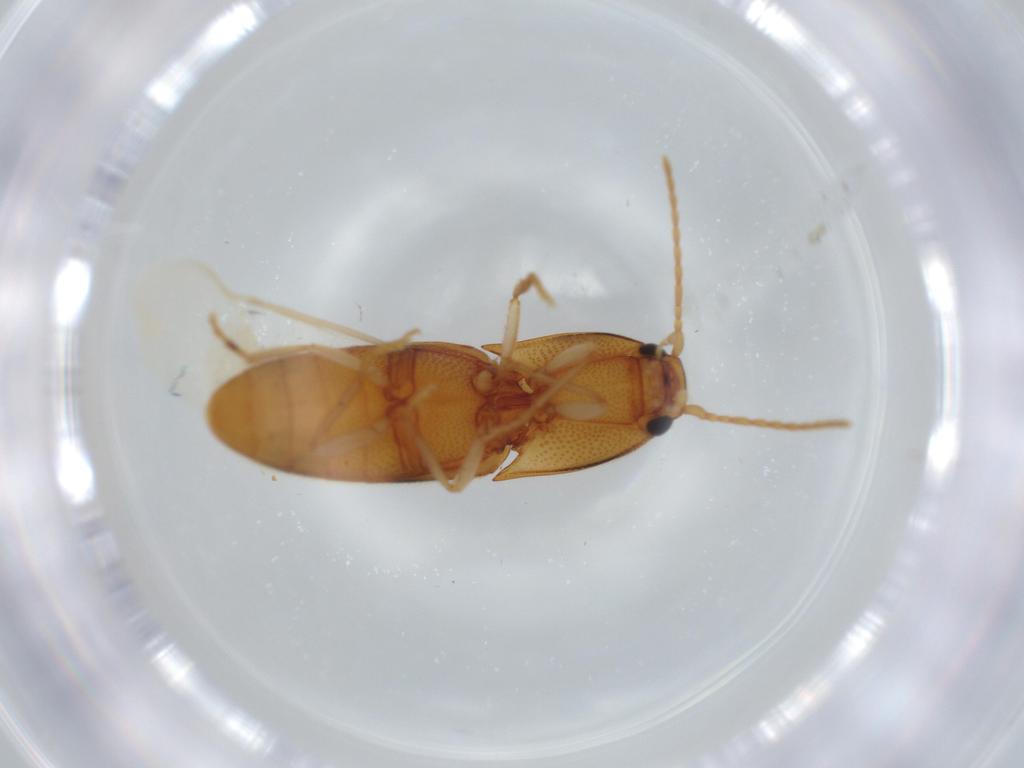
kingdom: Animalia
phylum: Arthropoda
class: Insecta
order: Coleoptera
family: Elateridae
